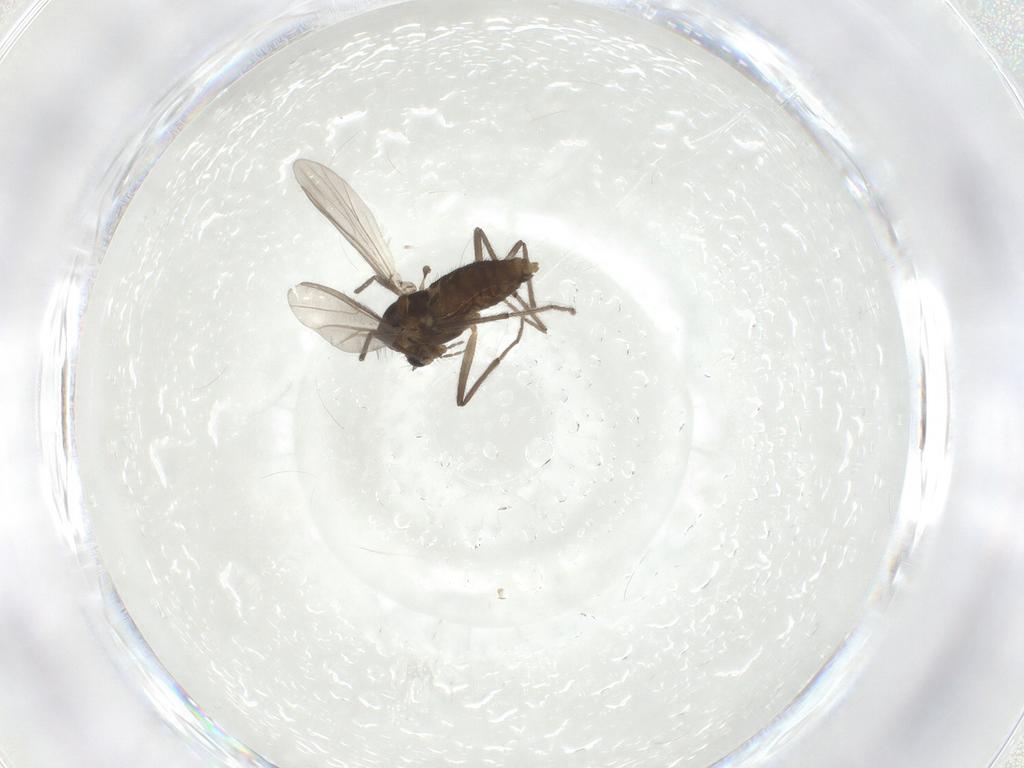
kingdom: Animalia
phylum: Arthropoda
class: Insecta
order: Diptera
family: Chironomidae
